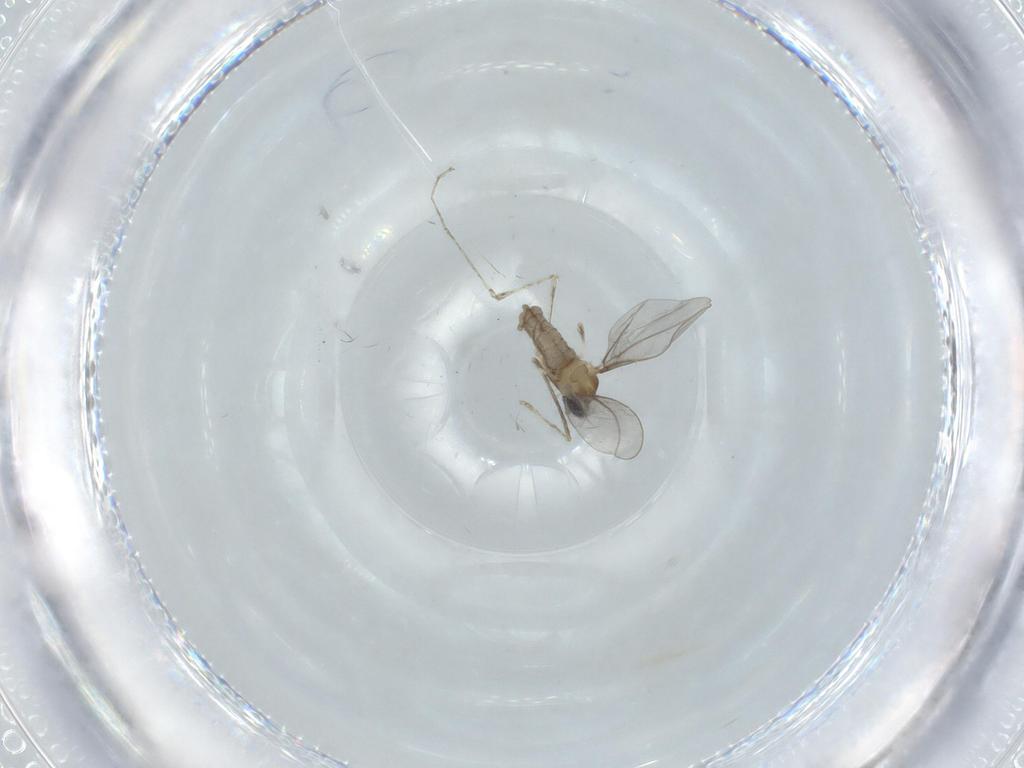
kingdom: Animalia
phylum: Arthropoda
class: Insecta
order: Diptera
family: Cecidomyiidae
